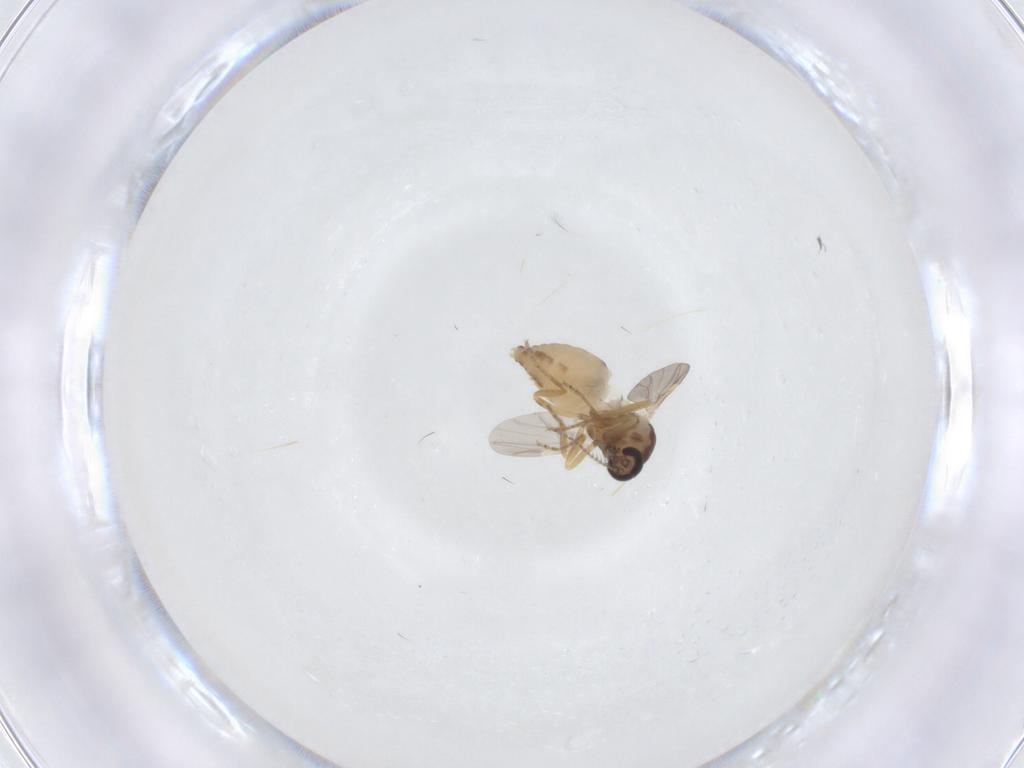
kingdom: Animalia
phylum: Arthropoda
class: Insecta
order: Diptera
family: Ceratopogonidae
